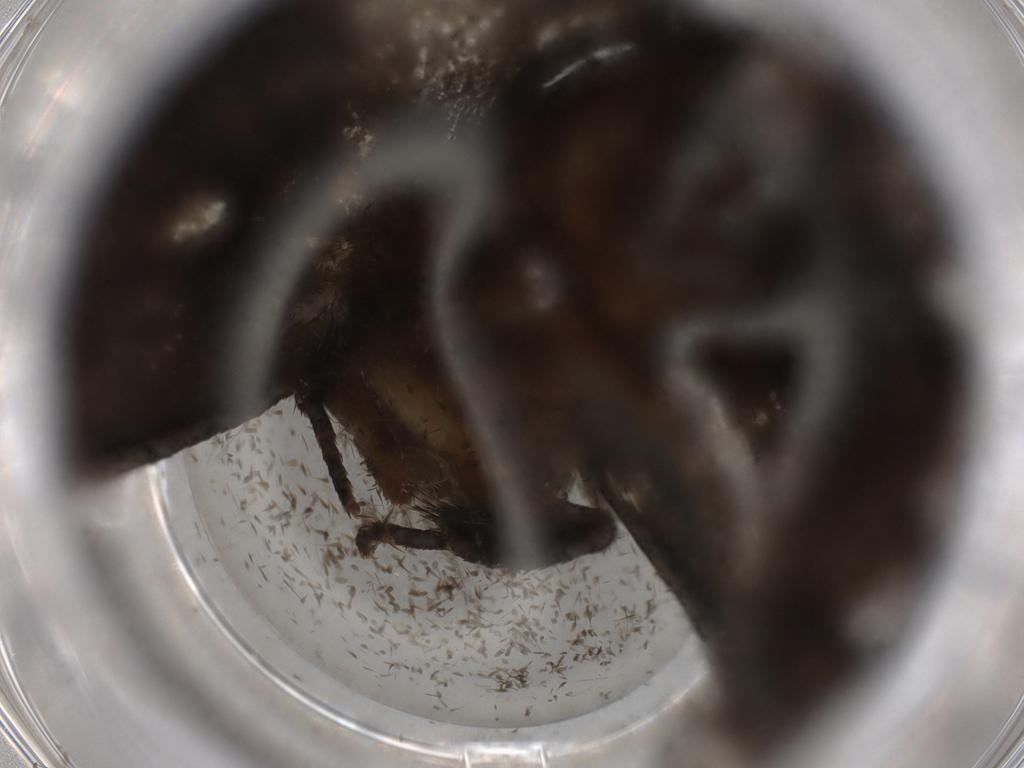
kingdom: Animalia
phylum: Arthropoda
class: Insecta
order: Lepidoptera
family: Tineidae
